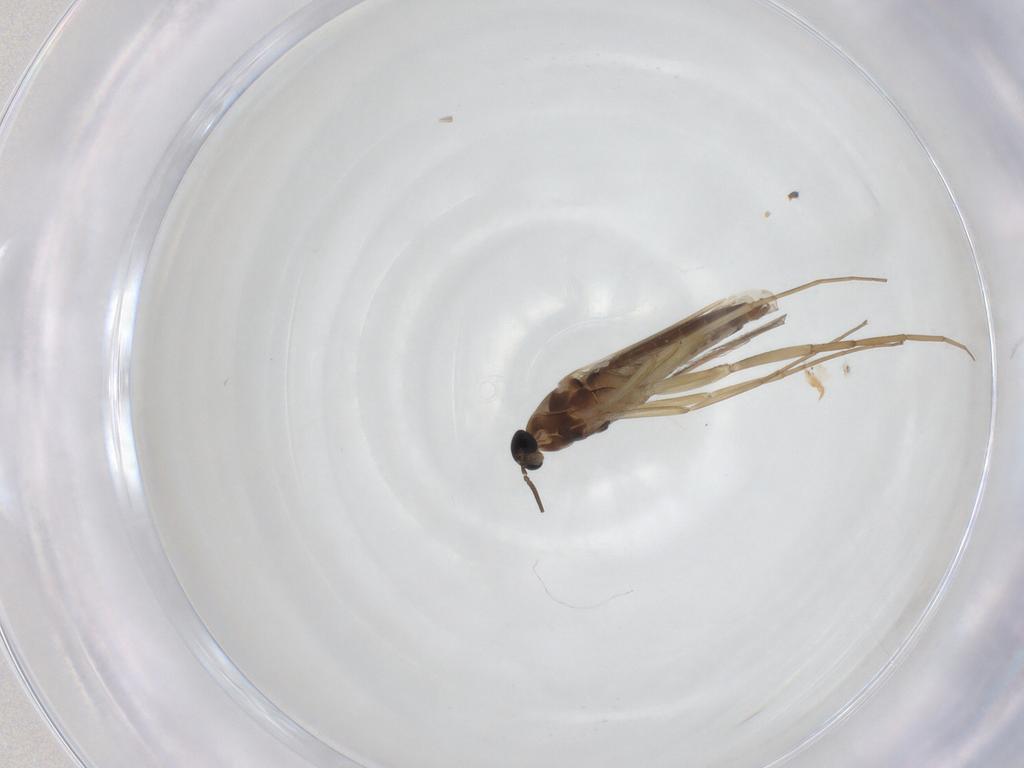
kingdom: Animalia
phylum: Arthropoda
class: Insecta
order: Diptera
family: Cecidomyiidae
